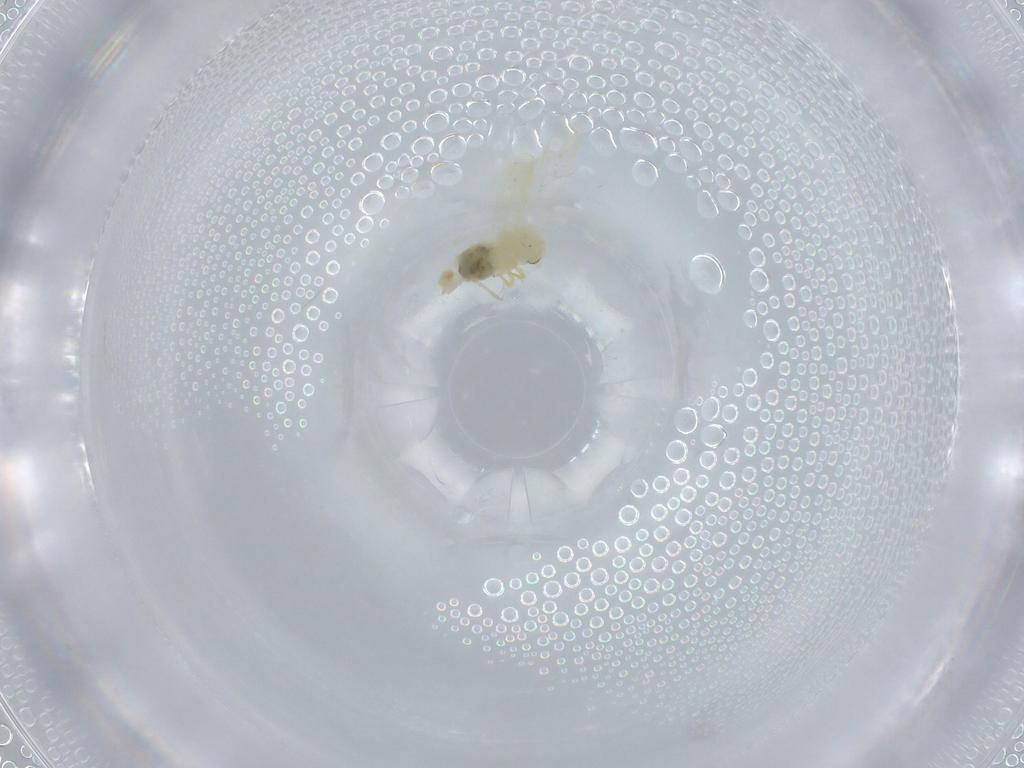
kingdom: Animalia
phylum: Arthropoda
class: Insecta
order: Hemiptera
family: Aleyrodidae
